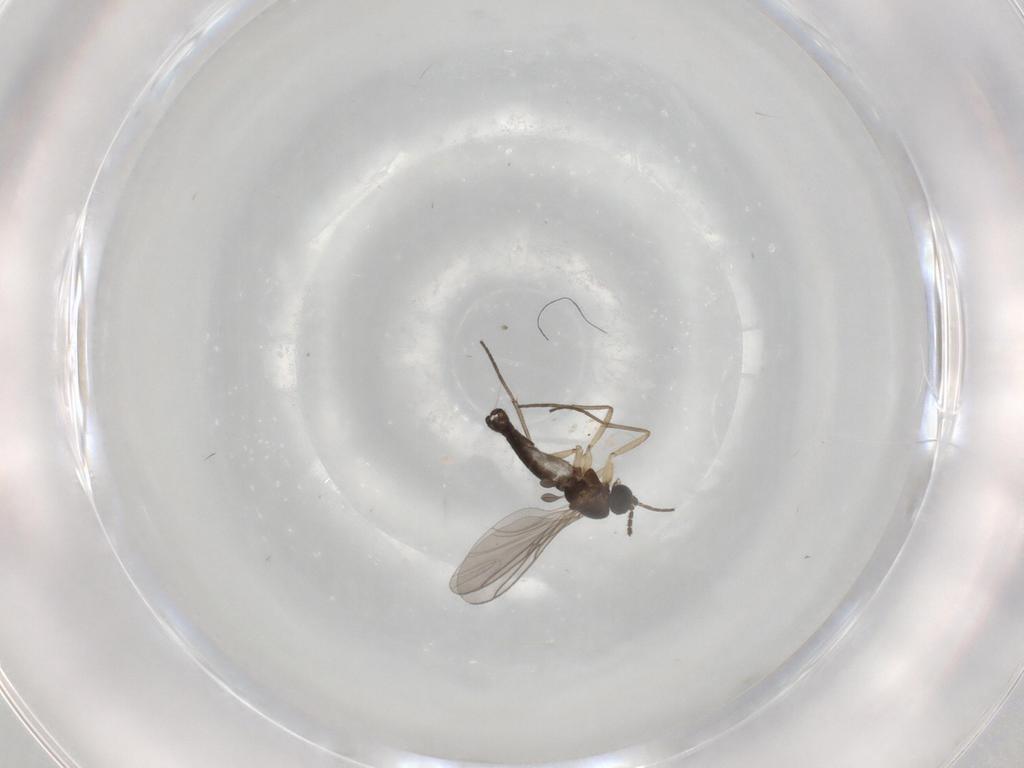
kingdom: Animalia
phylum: Arthropoda
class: Insecta
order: Diptera
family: Sciaridae
